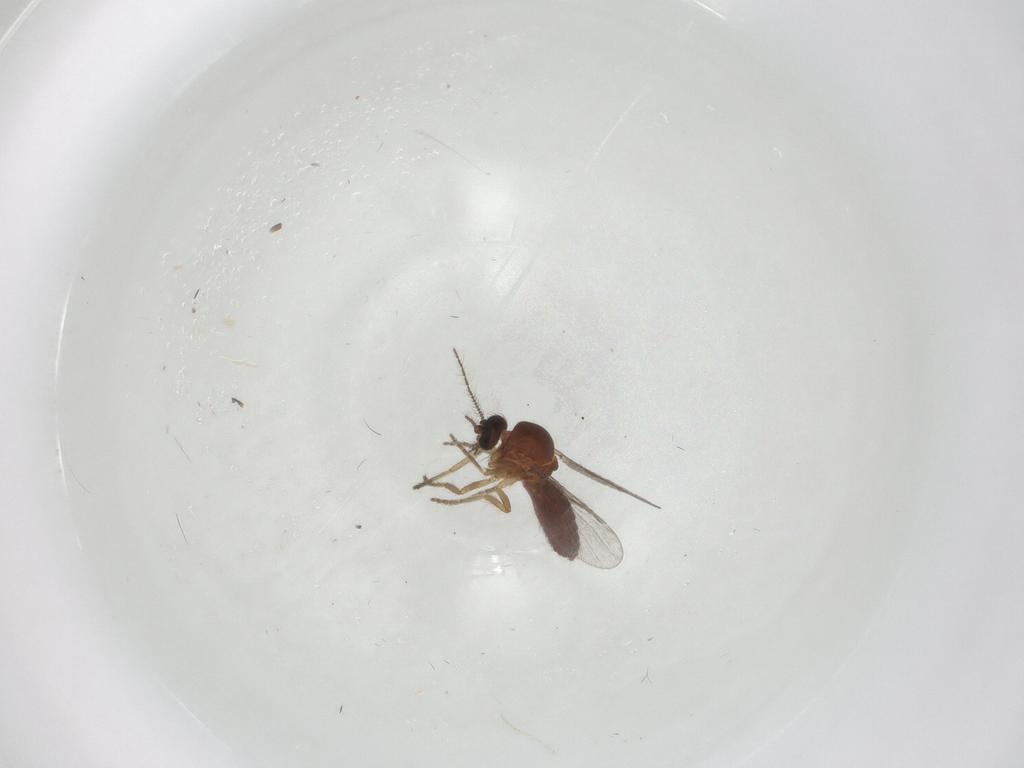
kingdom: Animalia
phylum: Arthropoda
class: Insecta
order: Diptera
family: Ceratopogonidae
